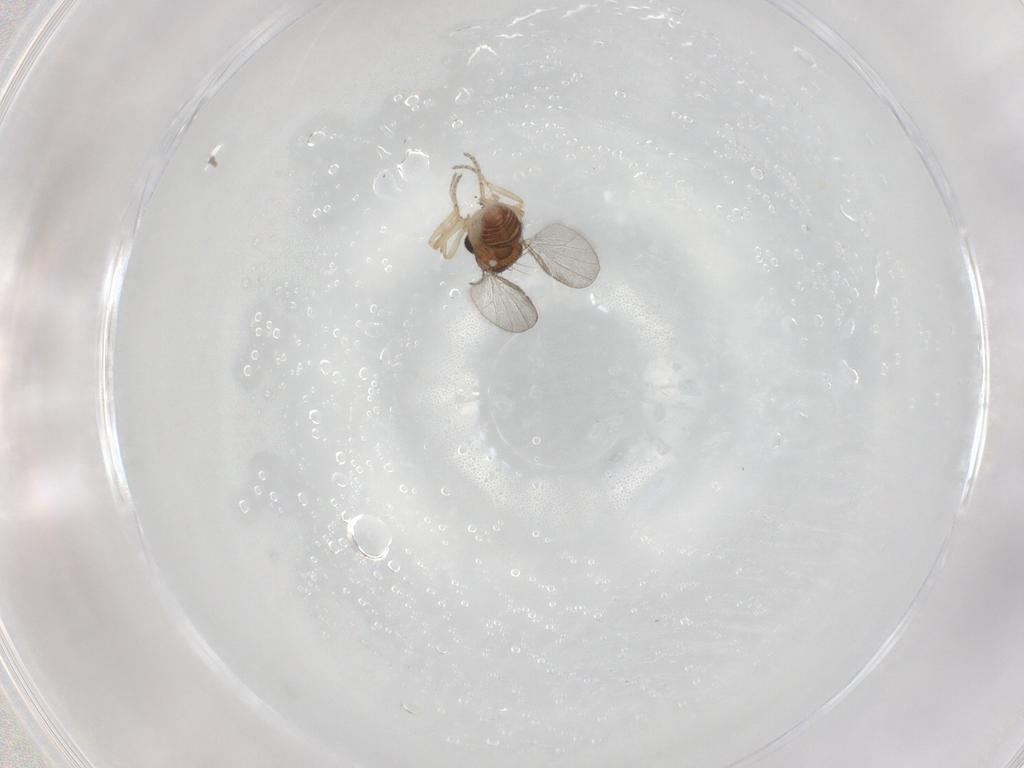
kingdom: Animalia
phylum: Arthropoda
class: Insecta
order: Diptera
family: Ceratopogonidae
